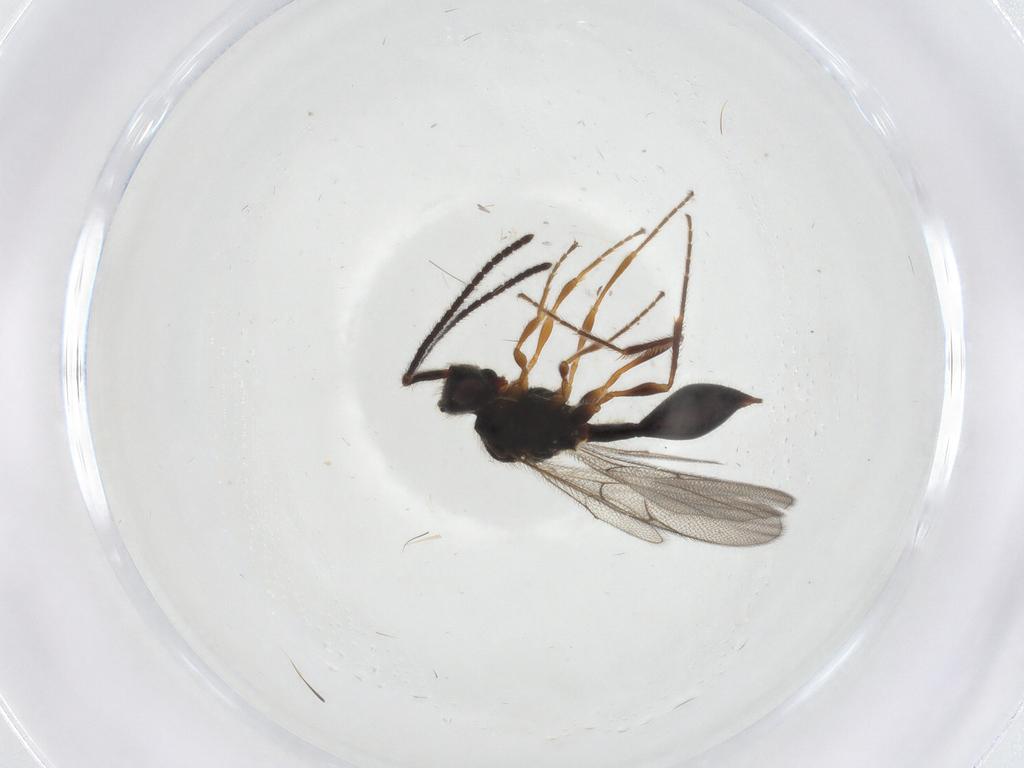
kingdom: Animalia
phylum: Arthropoda
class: Insecta
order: Hymenoptera
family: Diapriidae
